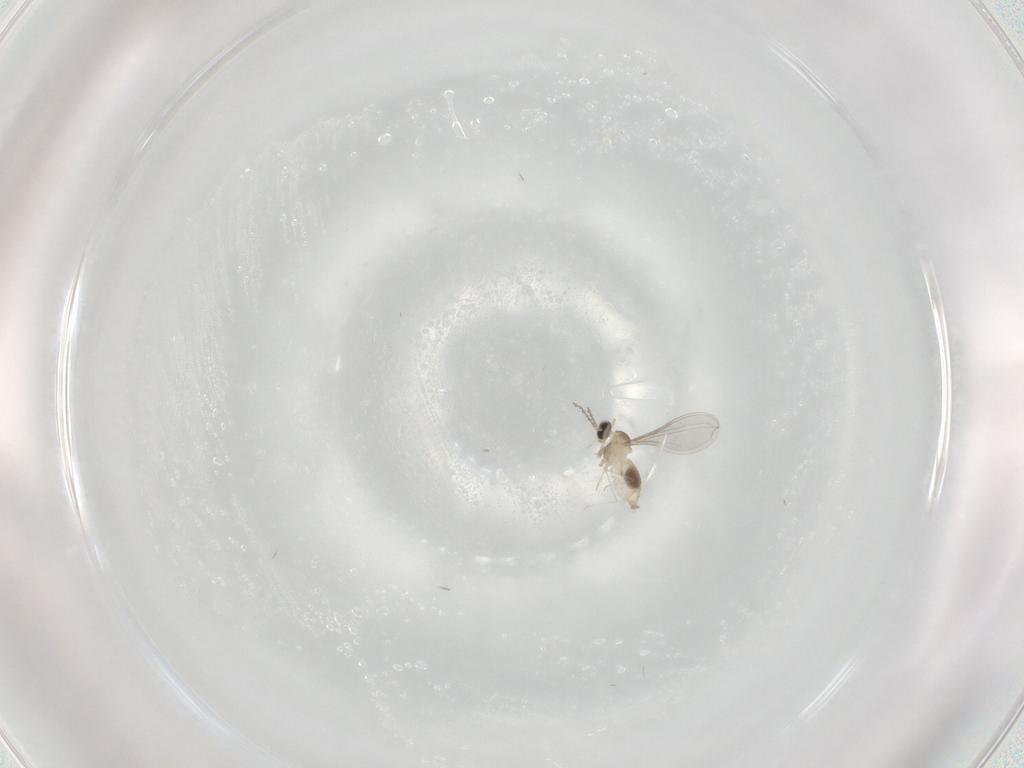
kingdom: Animalia
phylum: Arthropoda
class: Insecta
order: Diptera
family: Cecidomyiidae
